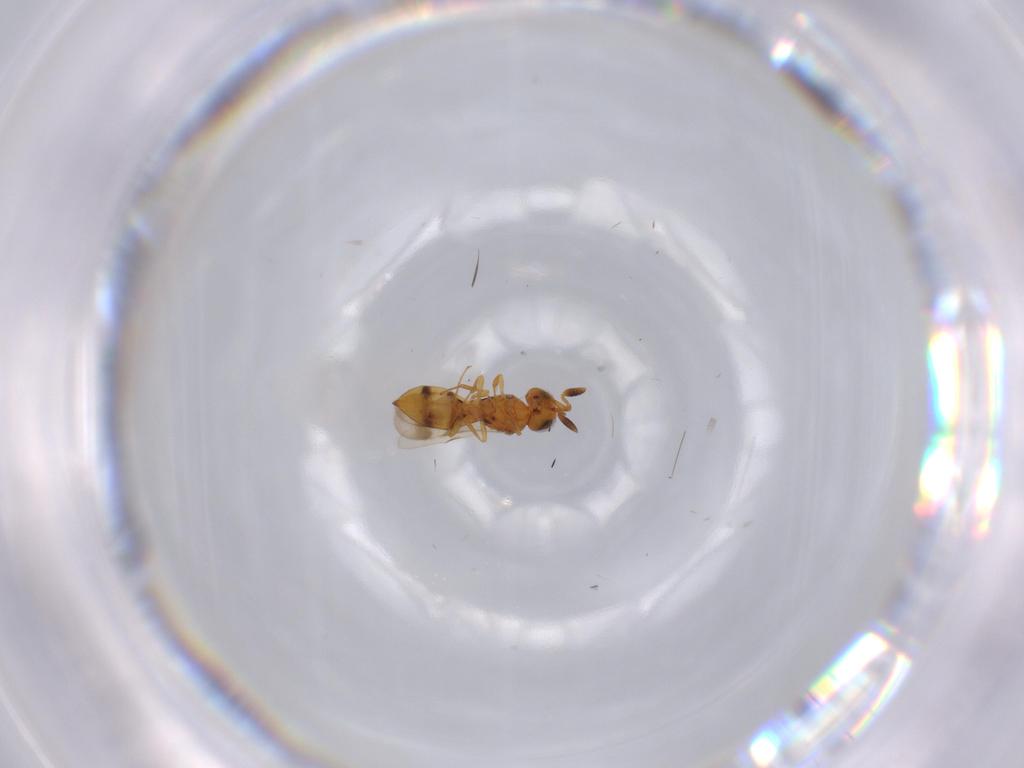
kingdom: Animalia
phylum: Arthropoda
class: Insecta
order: Hymenoptera
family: Scelionidae
